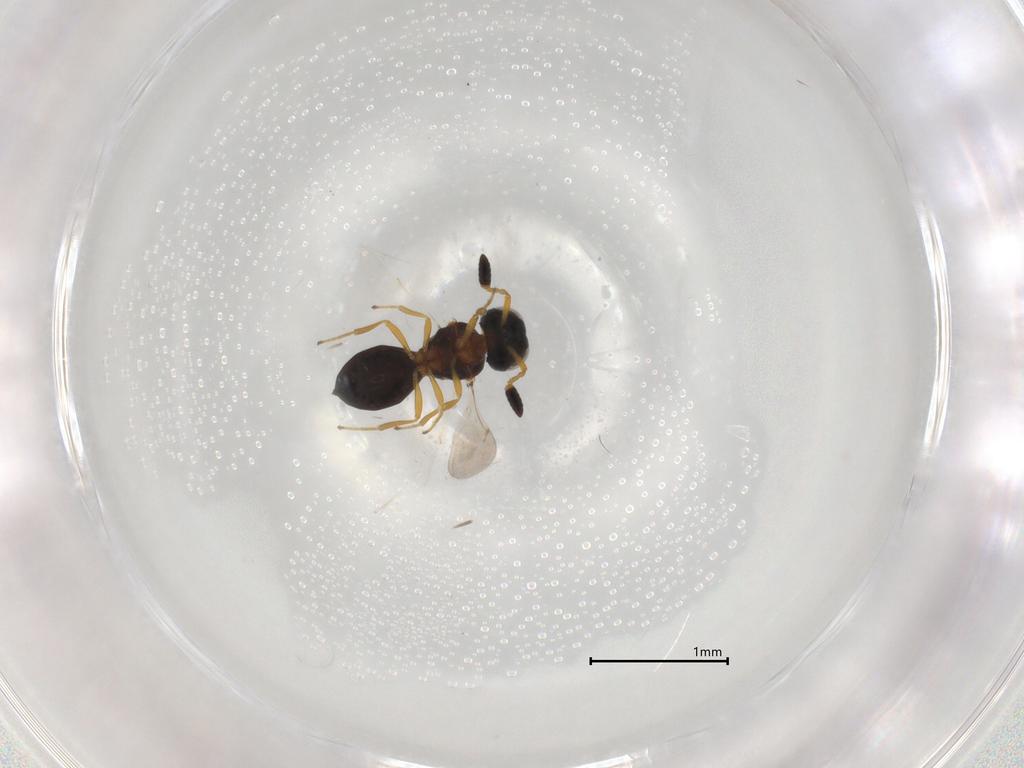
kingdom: Animalia
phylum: Arthropoda
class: Insecta
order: Hymenoptera
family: Scelionidae
